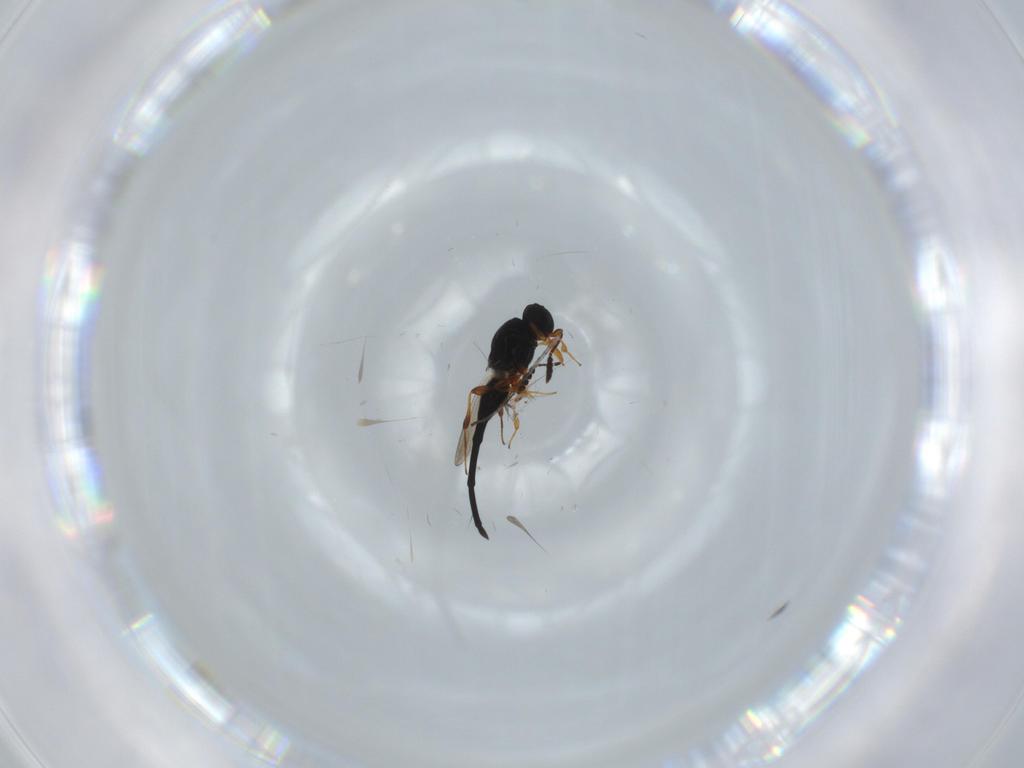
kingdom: Animalia
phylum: Arthropoda
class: Insecta
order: Hymenoptera
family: Platygastridae
